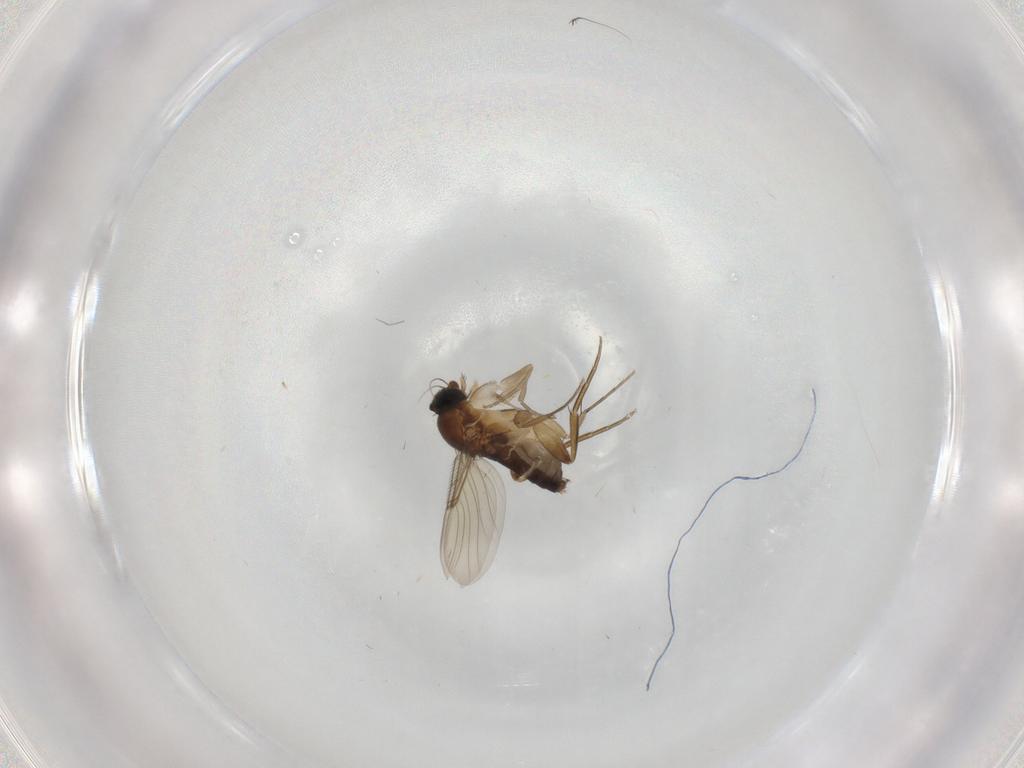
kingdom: Animalia
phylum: Arthropoda
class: Insecta
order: Diptera
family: Phoridae
